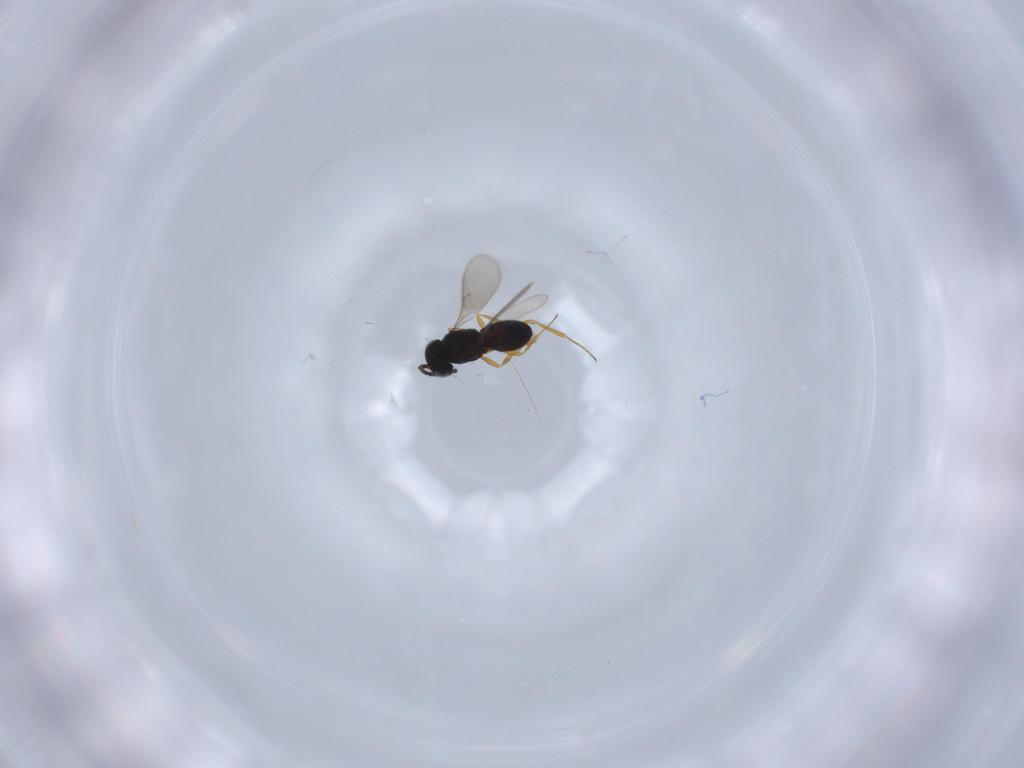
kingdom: Animalia
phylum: Arthropoda
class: Insecta
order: Hymenoptera
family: Scelionidae
